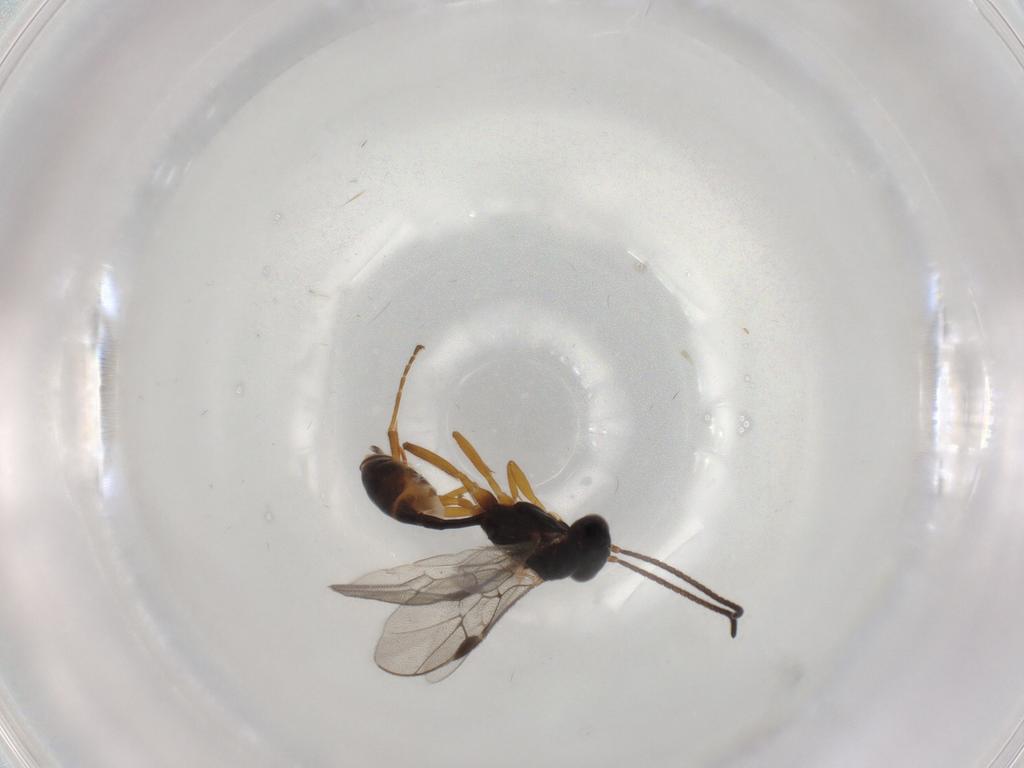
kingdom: Animalia
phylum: Arthropoda
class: Insecta
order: Hymenoptera
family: Ichneumonidae
